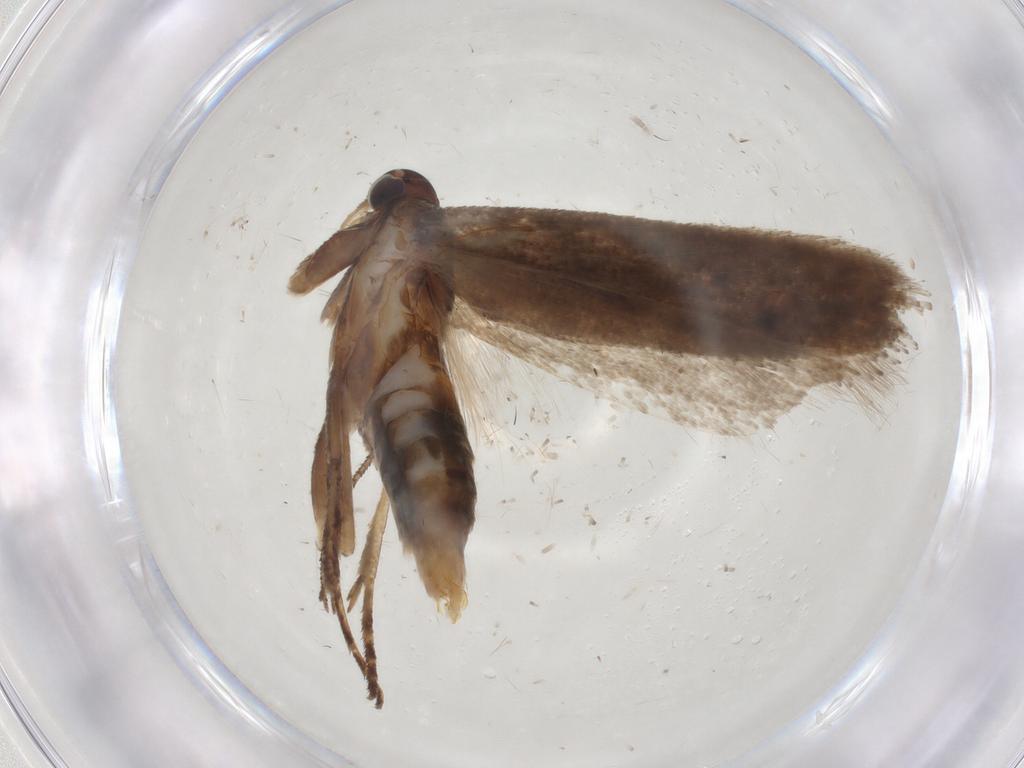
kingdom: Animalia
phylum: Arthropoda
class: Insecta
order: Lepidoptera
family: Gelechiidae
